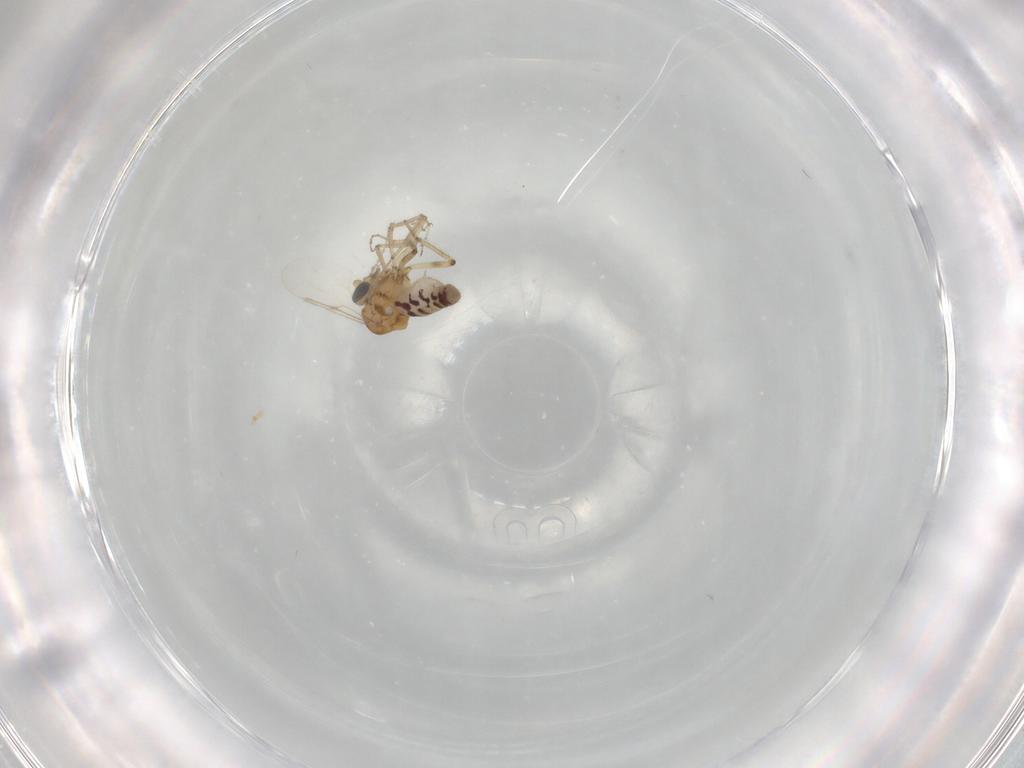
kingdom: Animalia
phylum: Arthropoda
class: Insecta
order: Diptera
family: Ceratopogonidae
